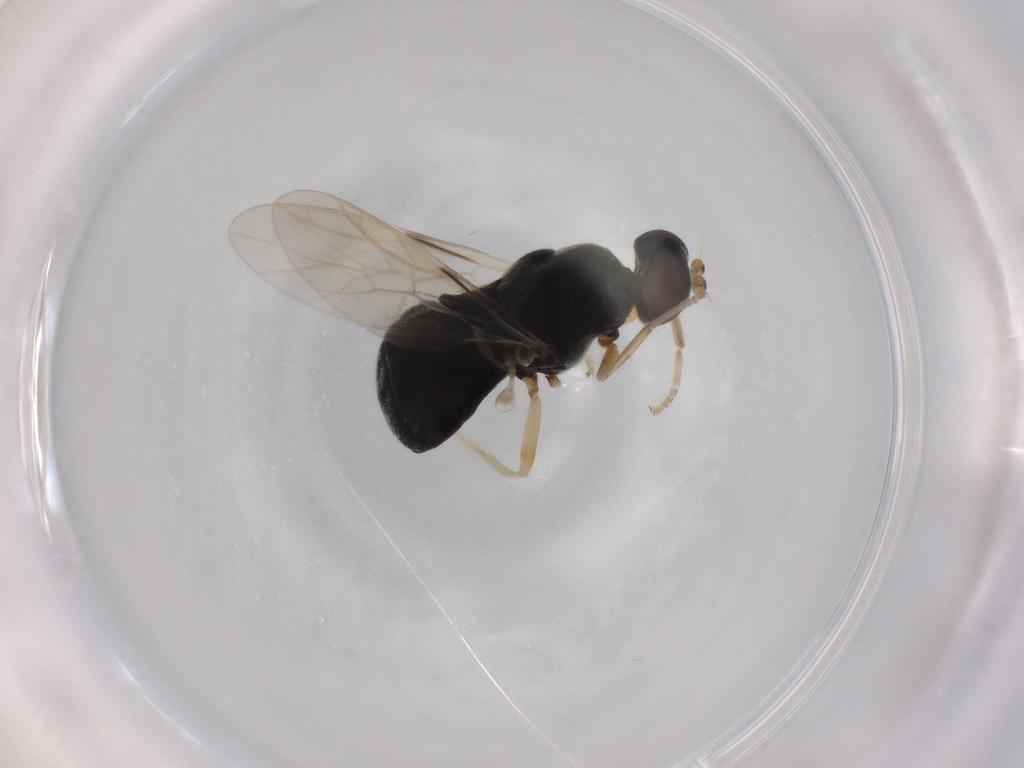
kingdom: Animalia
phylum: Arthropoda
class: Insecta
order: Diptera
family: Stratiomyidae
